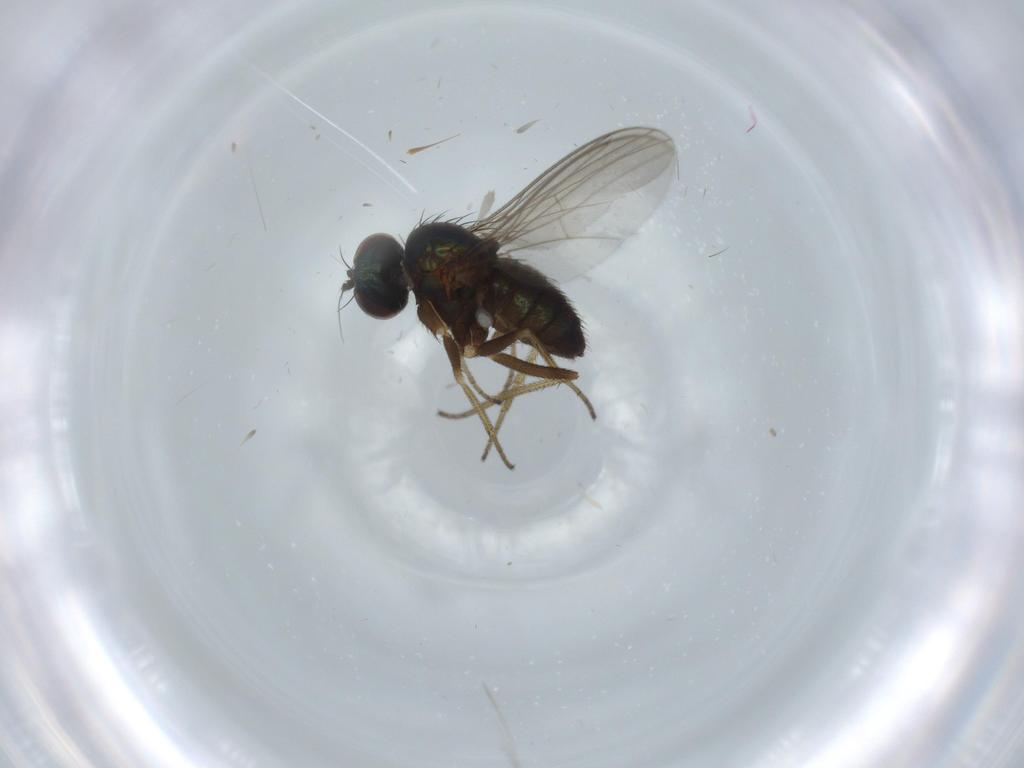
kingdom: Animalia
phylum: Arthropoda
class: Insecta
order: Diptera
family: Dolichopodidae
